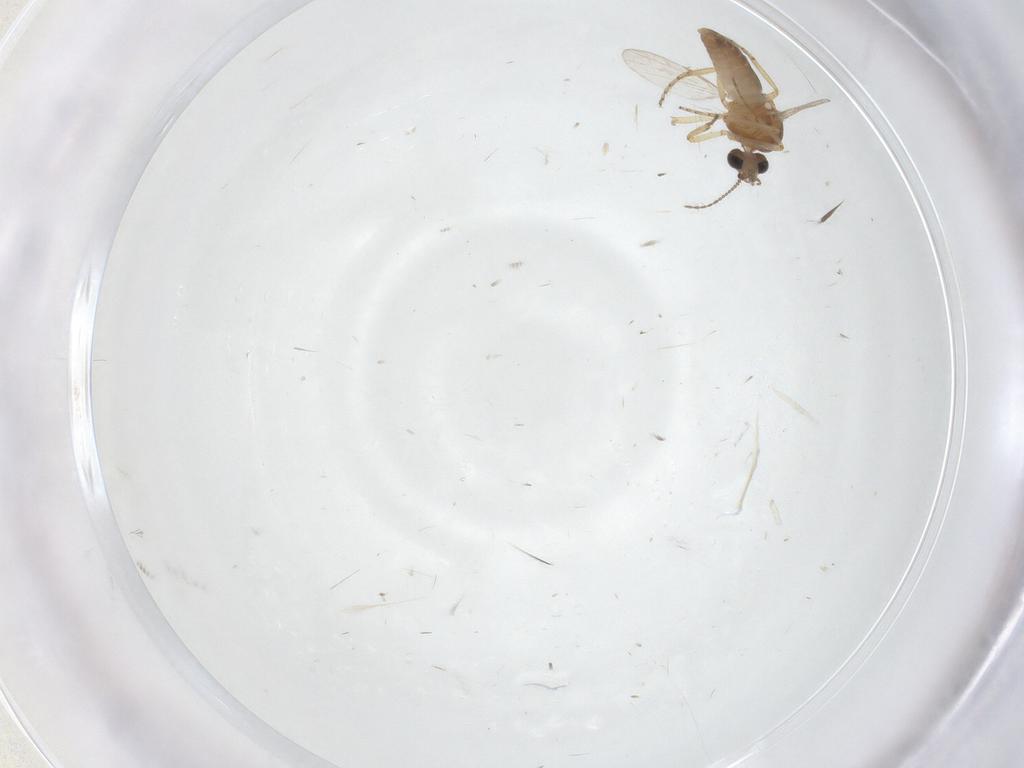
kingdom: Animalia
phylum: Arthropoda
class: Insecta
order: Diptera
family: Ceratopogonidae
